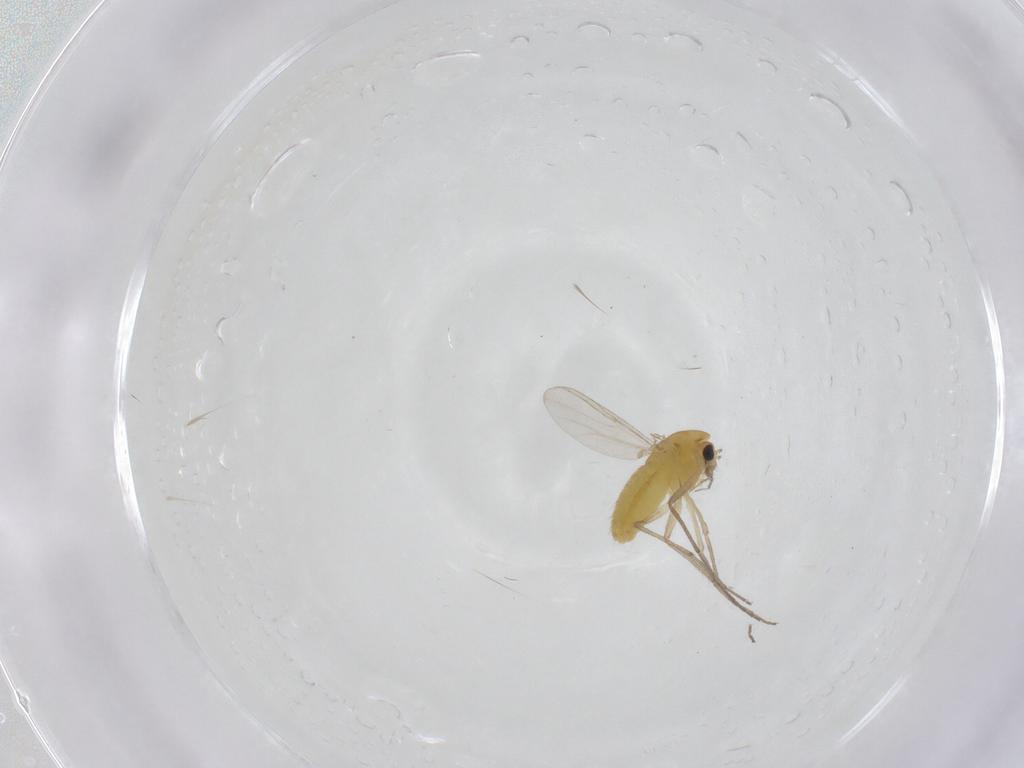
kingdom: Animalia
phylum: Arthropoda
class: Insecta
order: Diptera
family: Chironomidae
